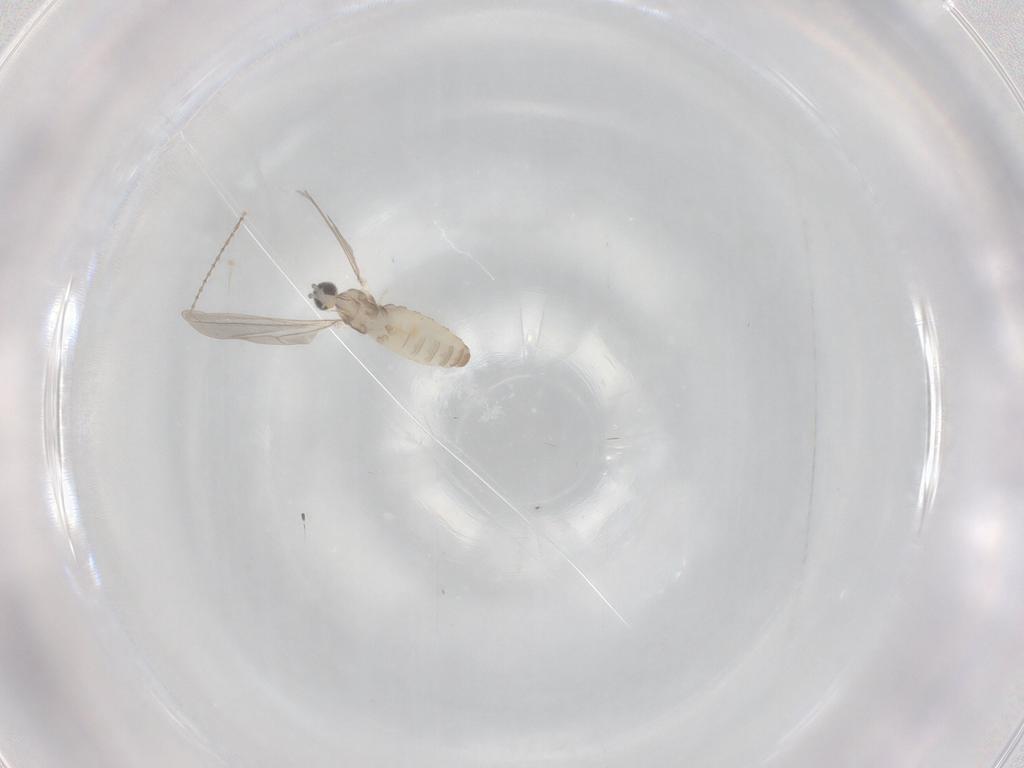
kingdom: Animalia
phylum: Arthropoda
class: Insecta
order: Diptera
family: Cecidomyiidae
